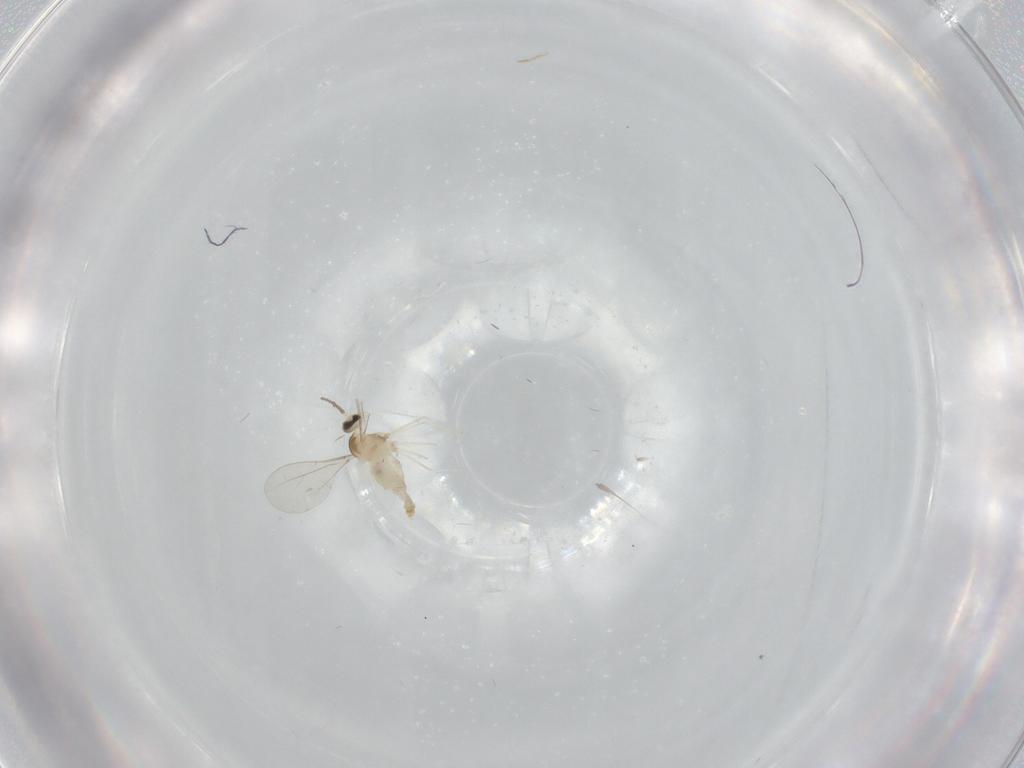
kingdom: Animalia
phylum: Arthropoda
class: Insecta
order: Diptera
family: Cecidomyiidae
